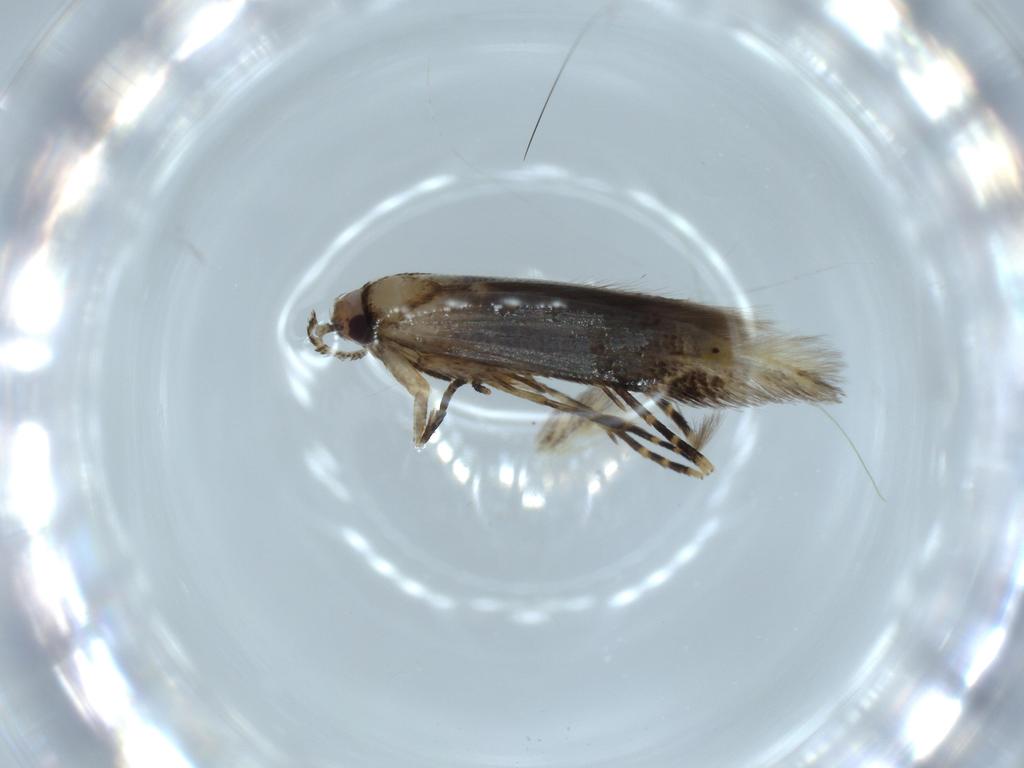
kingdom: Animalia
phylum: Arthropoda
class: Insecta
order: Lepidoptera
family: Stathmopodidae
